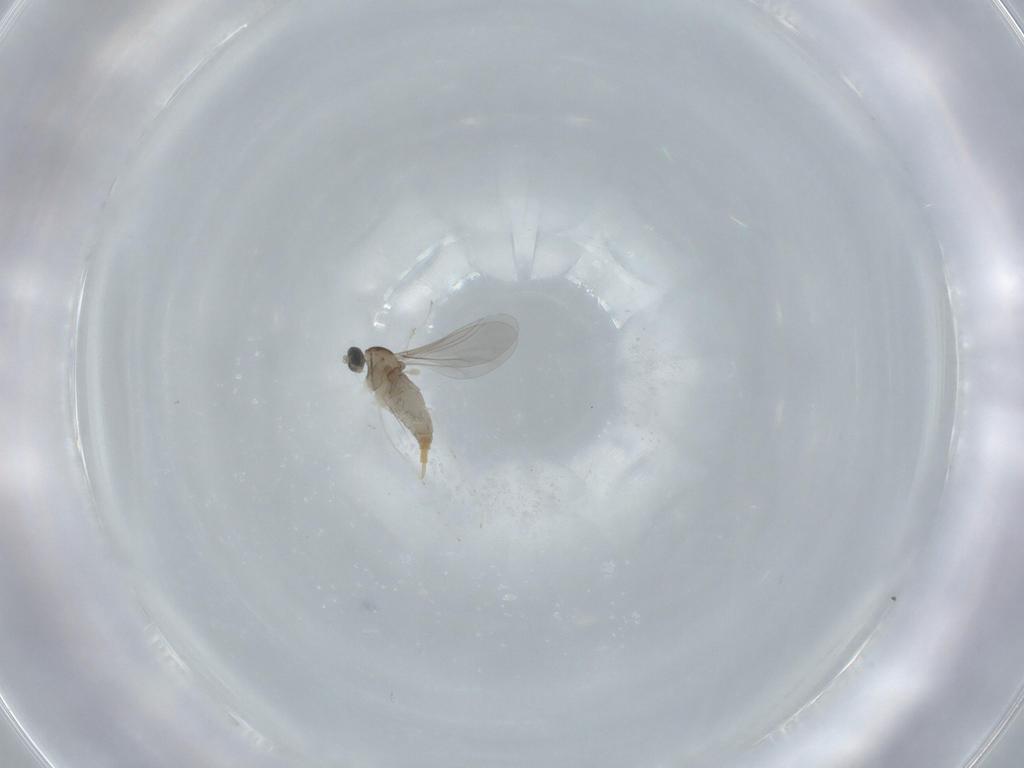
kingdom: Animalia
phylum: Arthropoda
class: Insecta
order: Diptera
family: Cecidomyiidae
